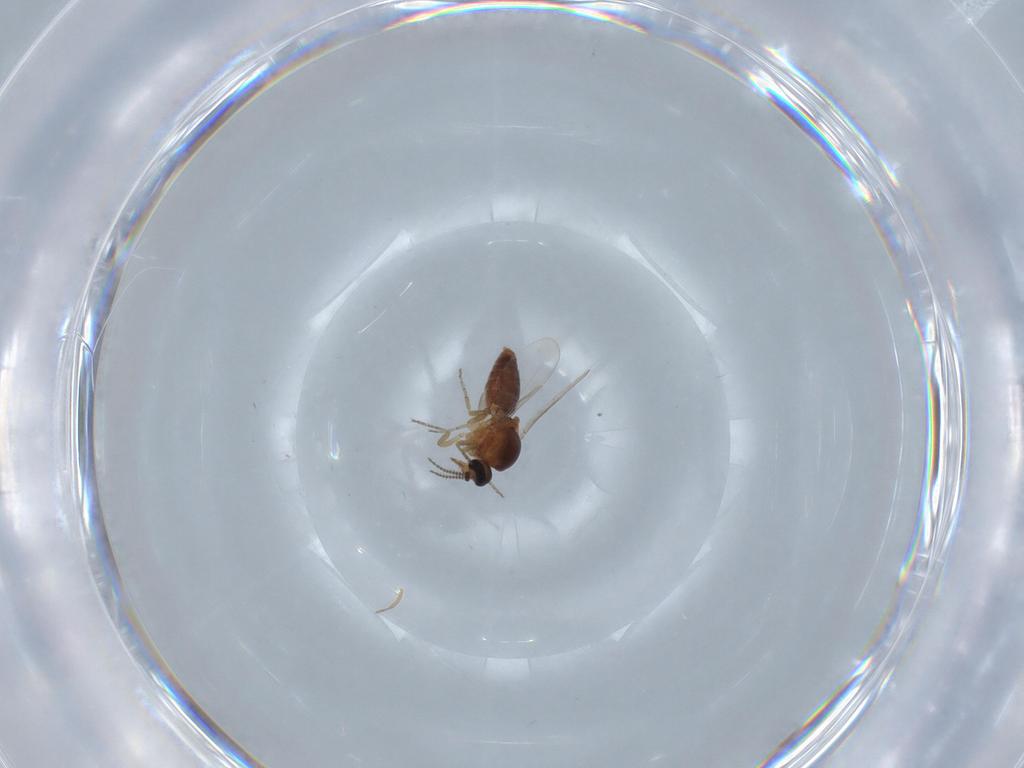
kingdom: Animalia
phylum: Arthropoda
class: Insecta
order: Diptera
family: Ceratopogonidae
